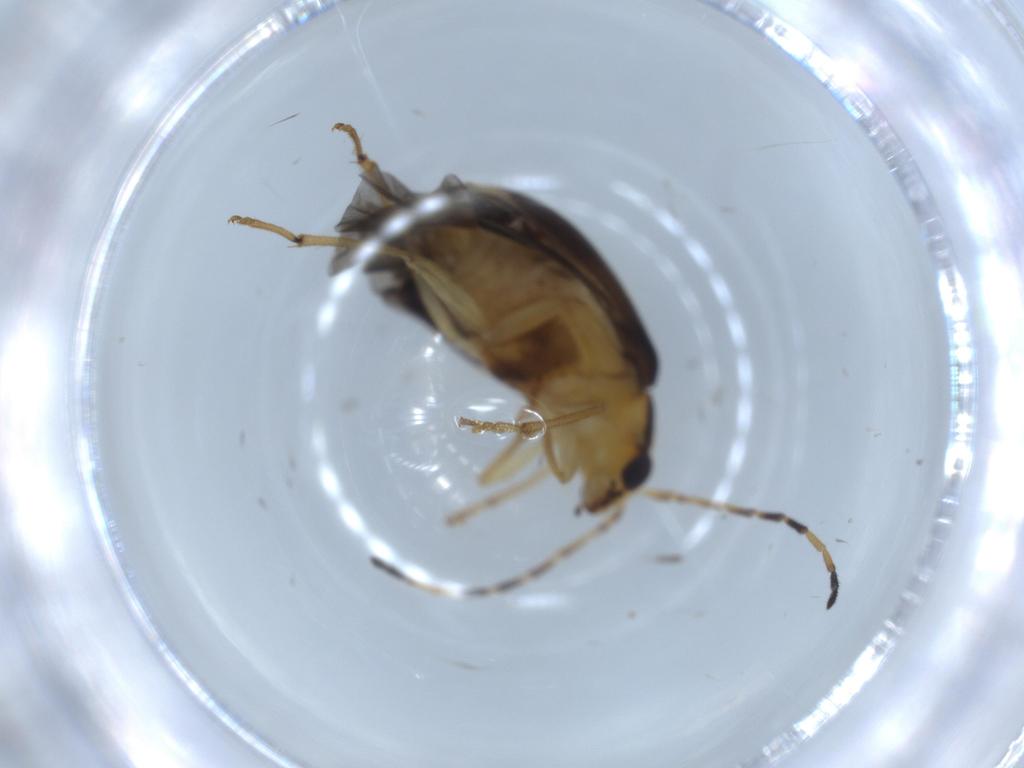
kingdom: Animalia
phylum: Arthropoda
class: Insecta
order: Coleoptera
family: Chrysomelidae
